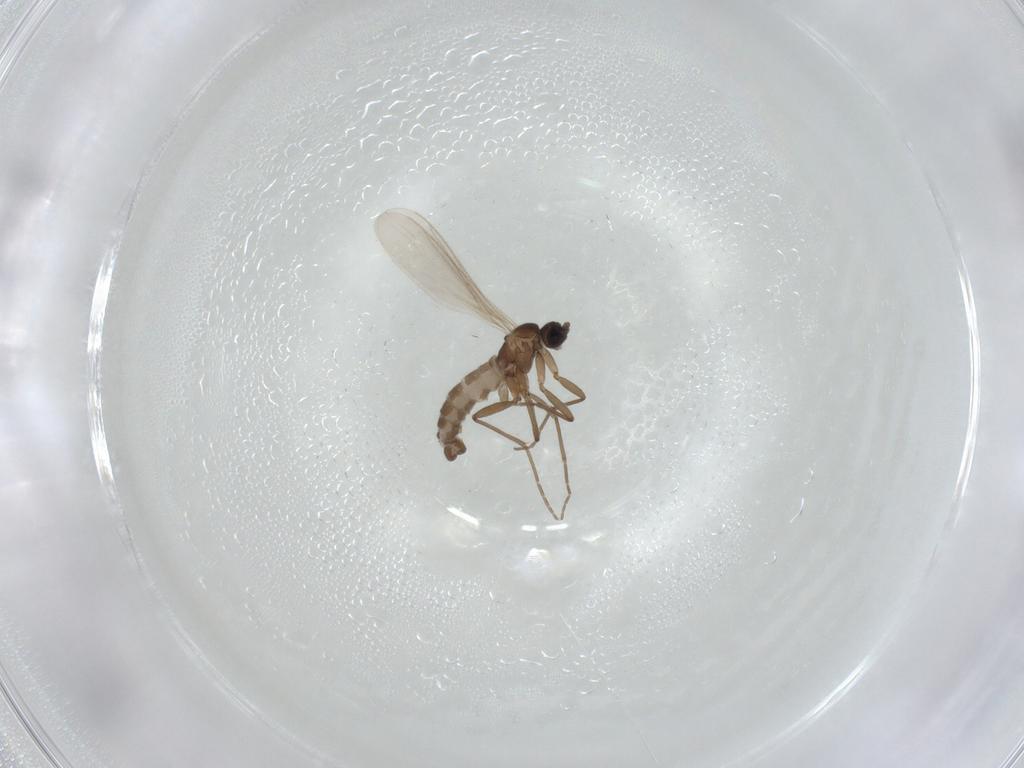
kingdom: Animalia
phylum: Arthropoda
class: Insecta
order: Diptera
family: Sciaridae
